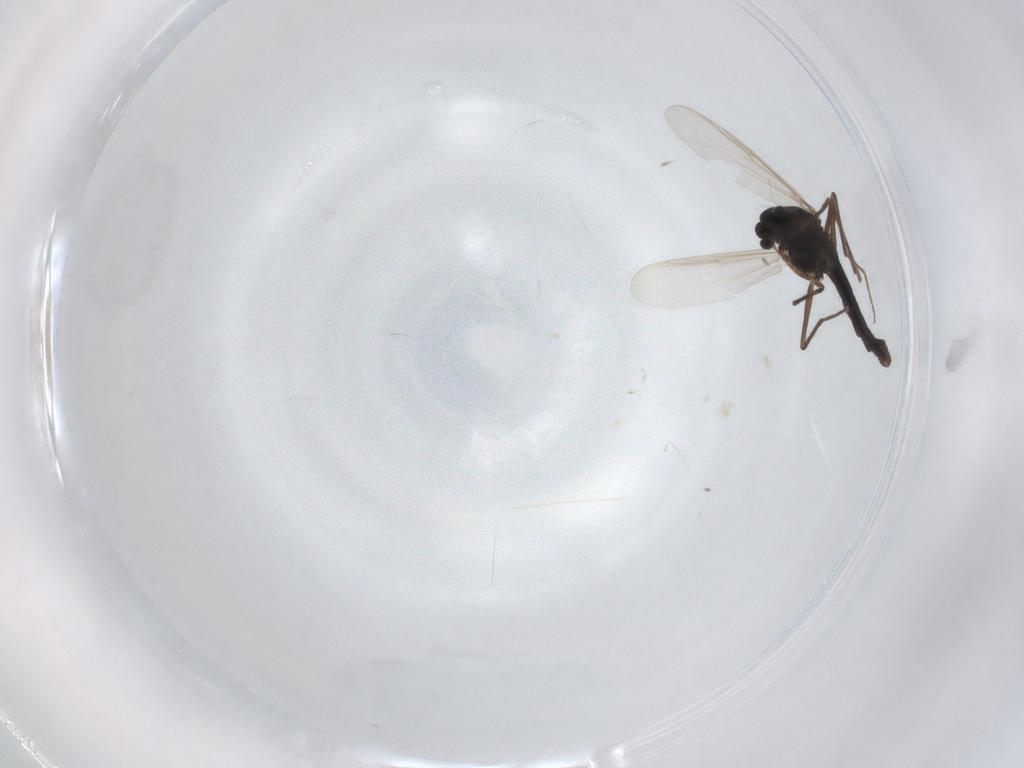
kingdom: Animalia
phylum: Arthropoda
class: Insecta
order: Diptera
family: Chironomidae
